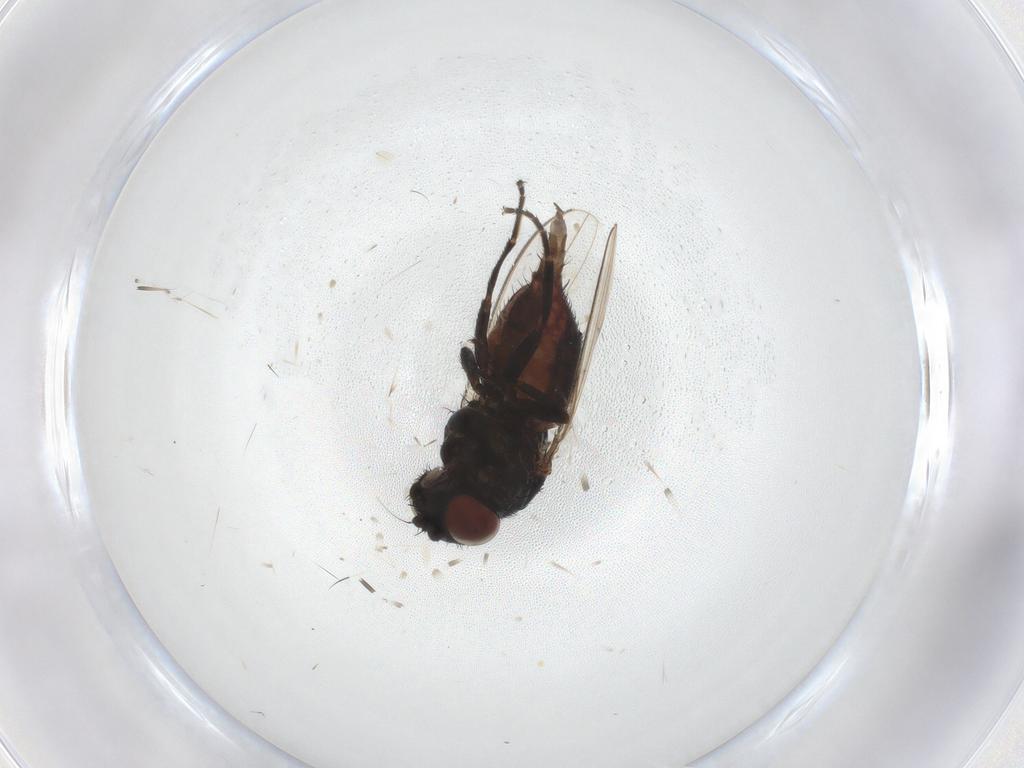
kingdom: Animalia
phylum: Arthropoda
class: Insecta
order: Diptera
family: Milichiidae
